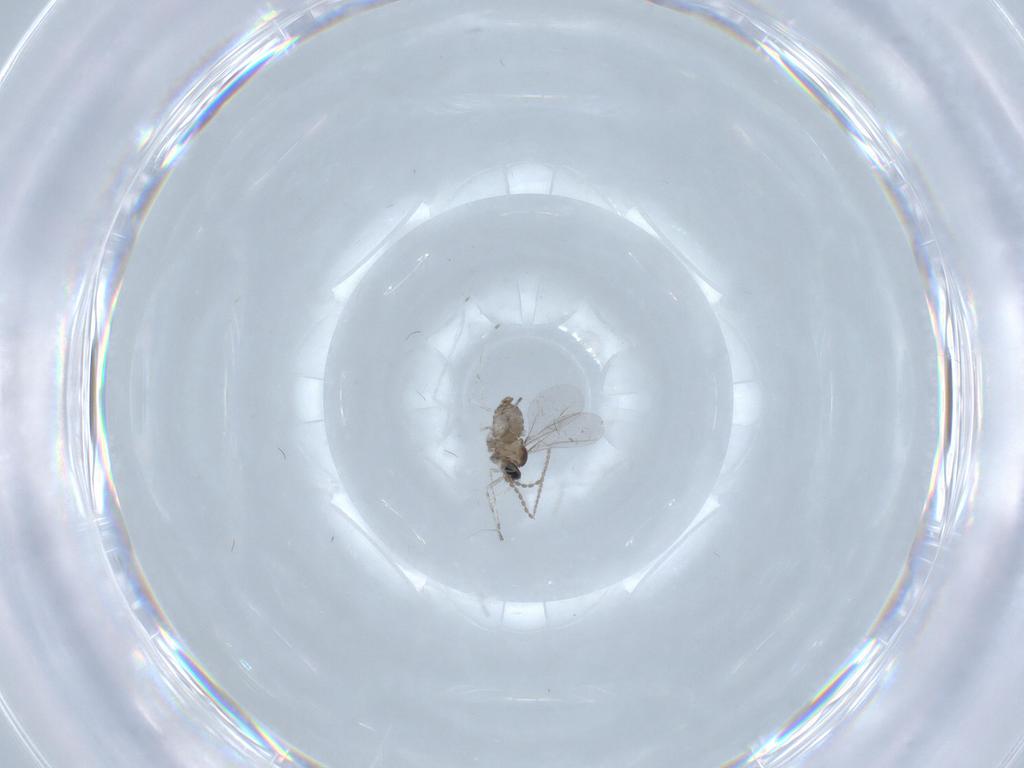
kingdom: Animalia
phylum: Arthropoda
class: Insecta
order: Diptera
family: Cecidomyiidae
